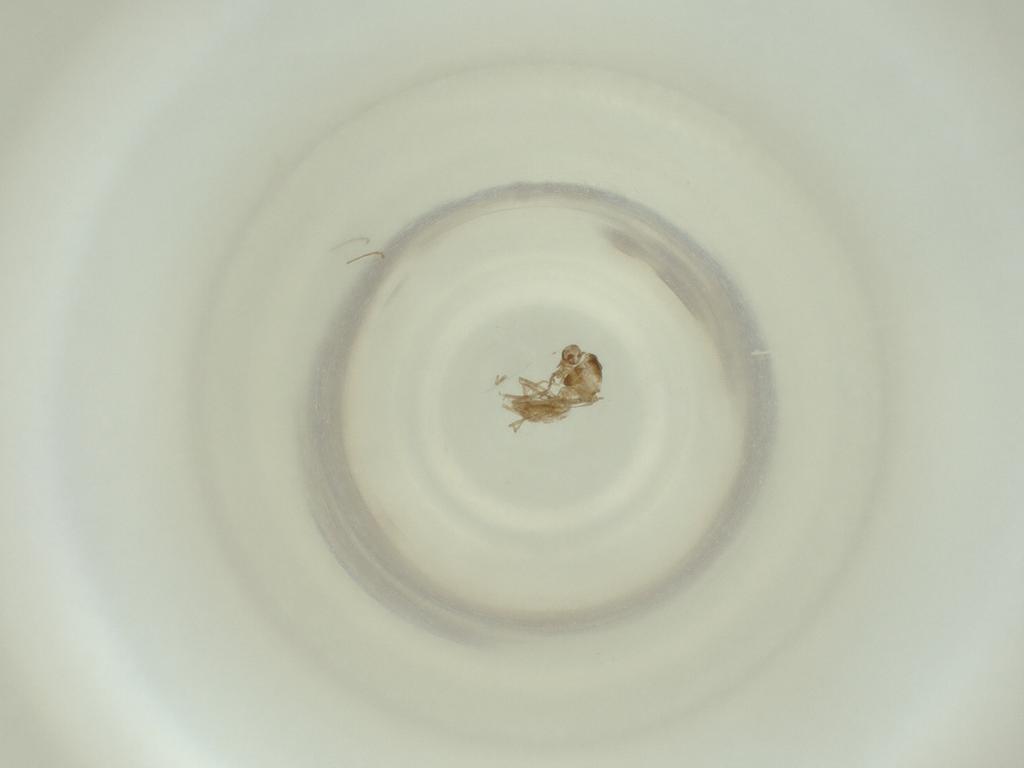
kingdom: Animalia
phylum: Arthropoda
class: Insecta
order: Diptera
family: Cecidomyiidae
